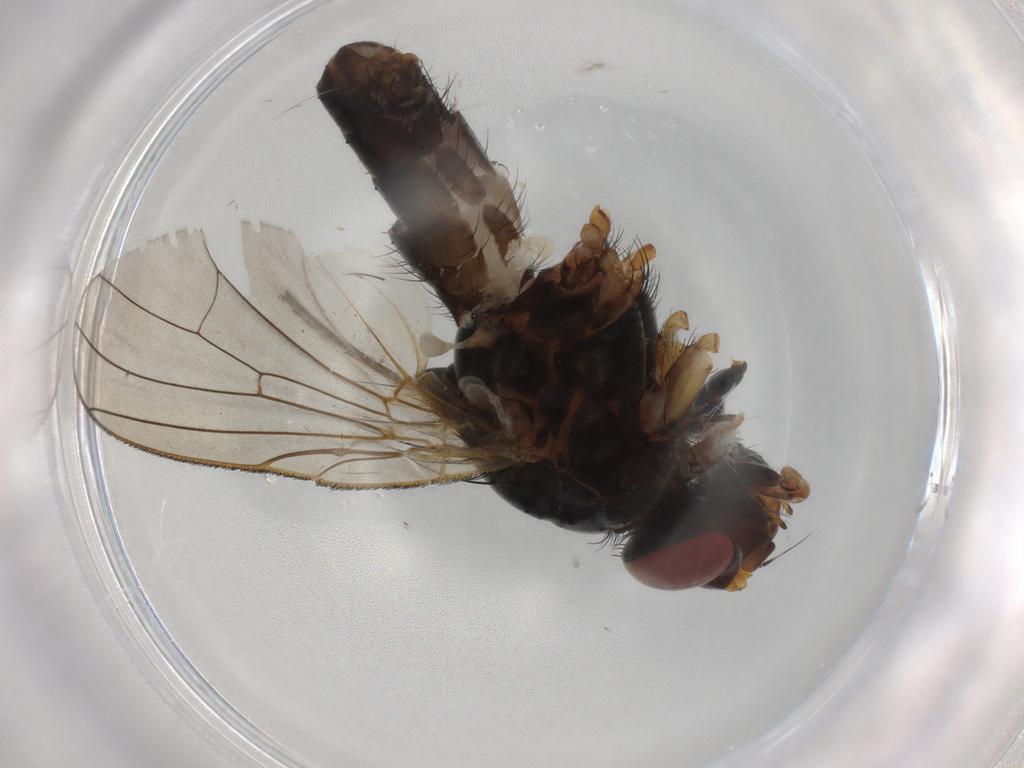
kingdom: Animalia
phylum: Arthropoda
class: Insecta
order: Diptera
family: Anthomyiidae
